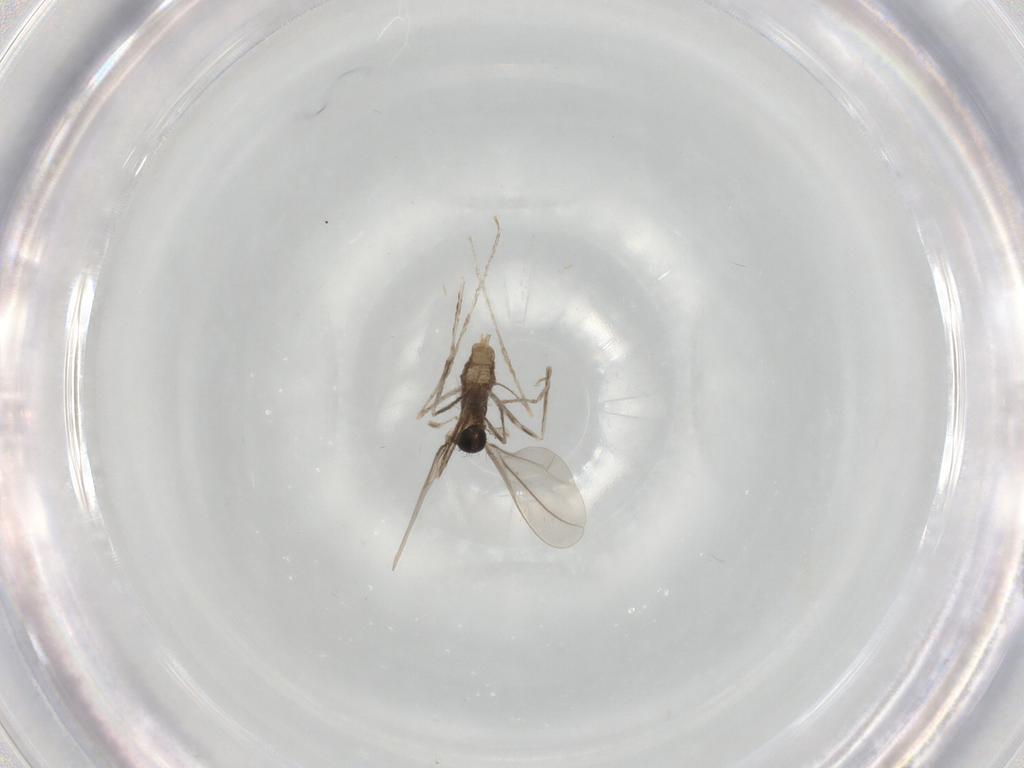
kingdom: Animalia
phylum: Arthropoda
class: Insecta
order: Diptera
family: Cecidomyiidae
